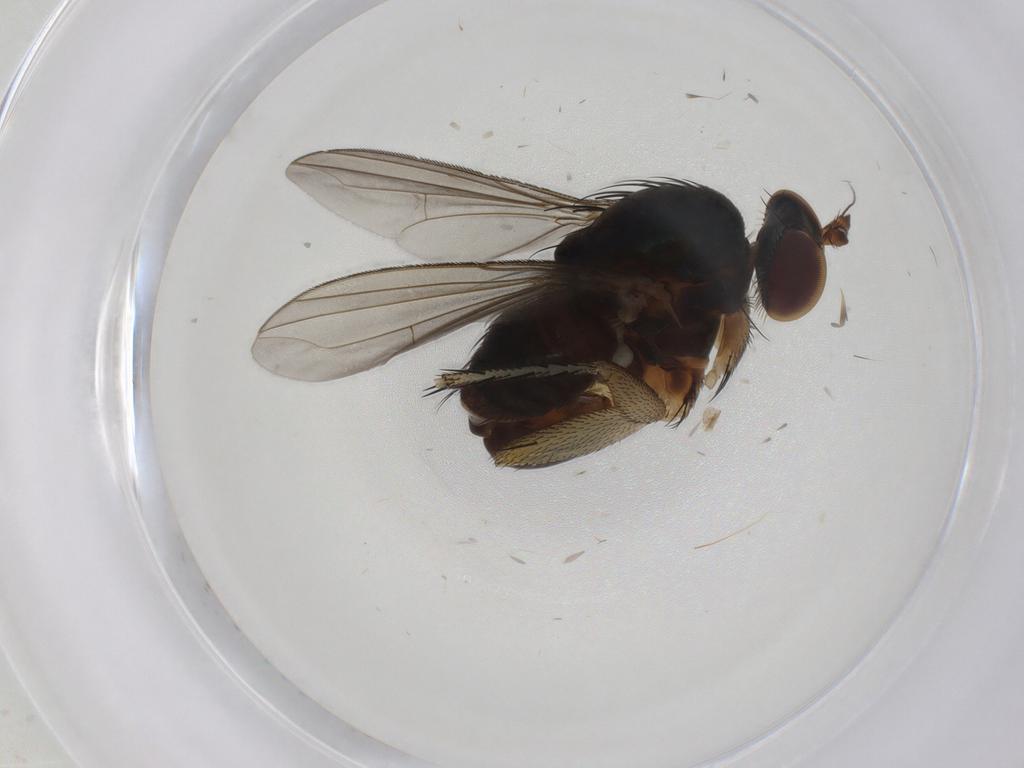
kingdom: Animalia
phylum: Arthropoda
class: Insecta
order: Diptera
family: Dolichopodidae
